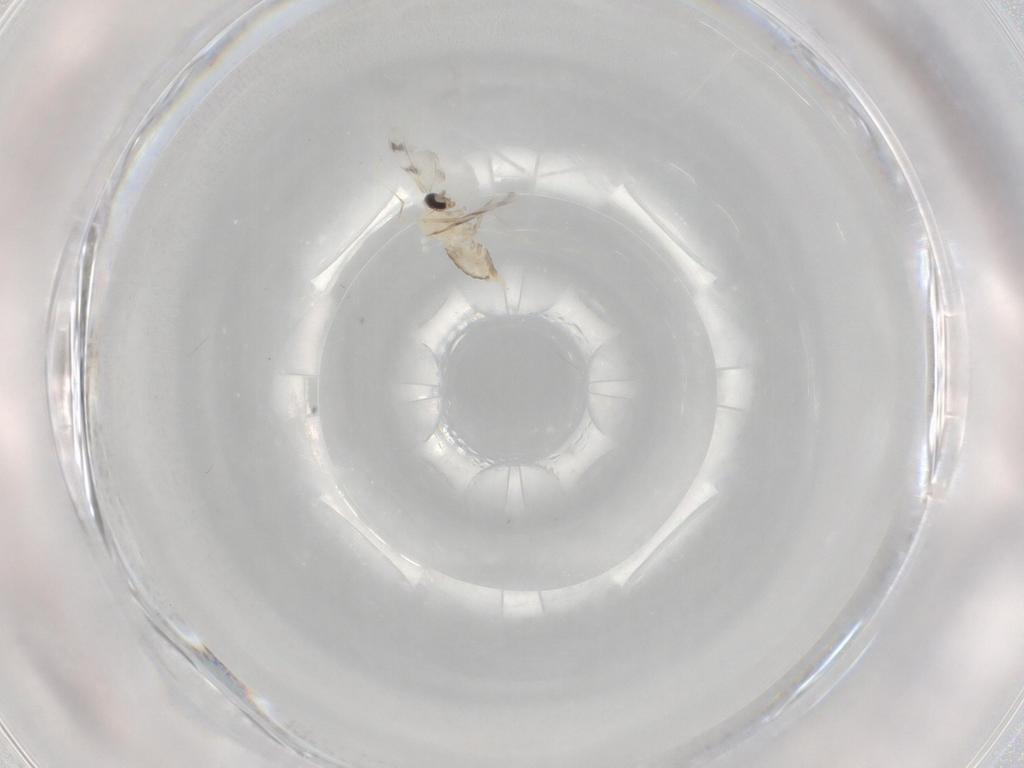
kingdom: Animalia
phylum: Arthropoda
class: Insecta
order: Diptera
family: Cecidomyiidae
